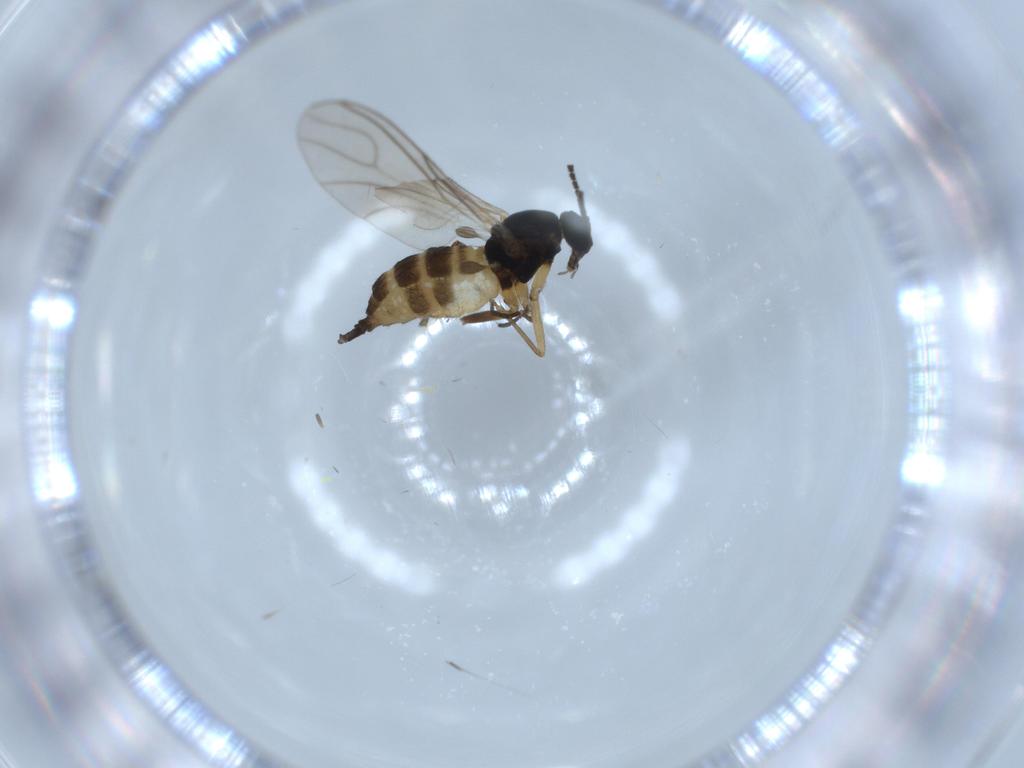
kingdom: Animalia
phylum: Arthropoda
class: Insecta
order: Diptera
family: Sciaridae
